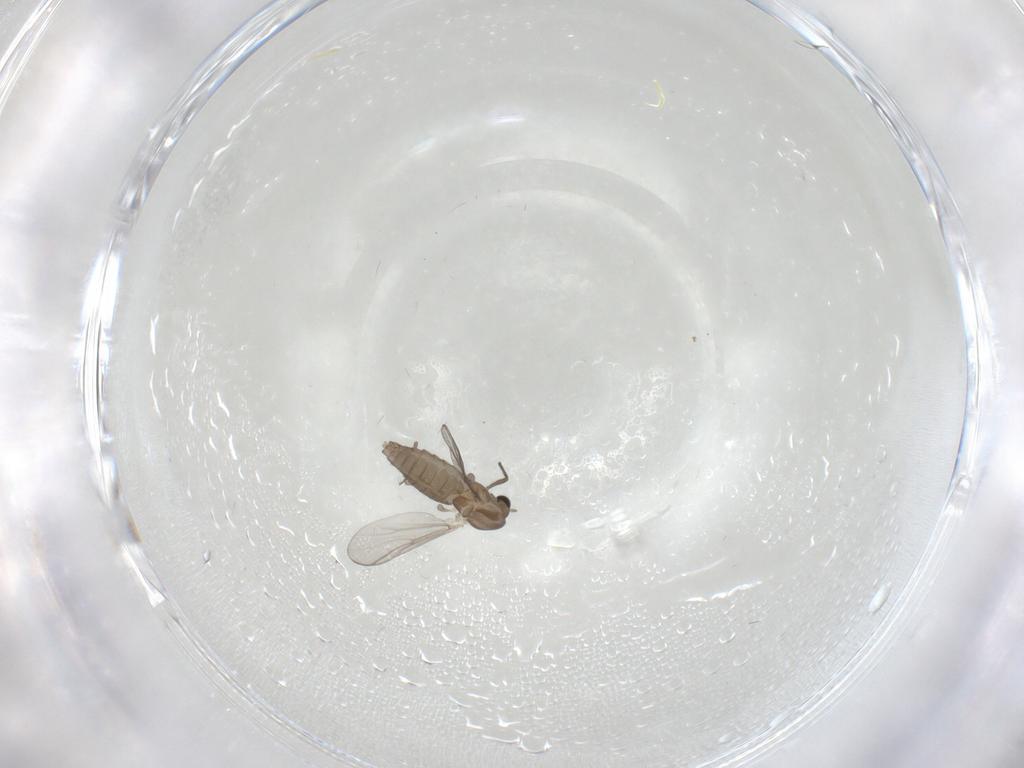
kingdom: Animalia
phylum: Arthropoda
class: Insecta
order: Diptera
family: Chironomidae
